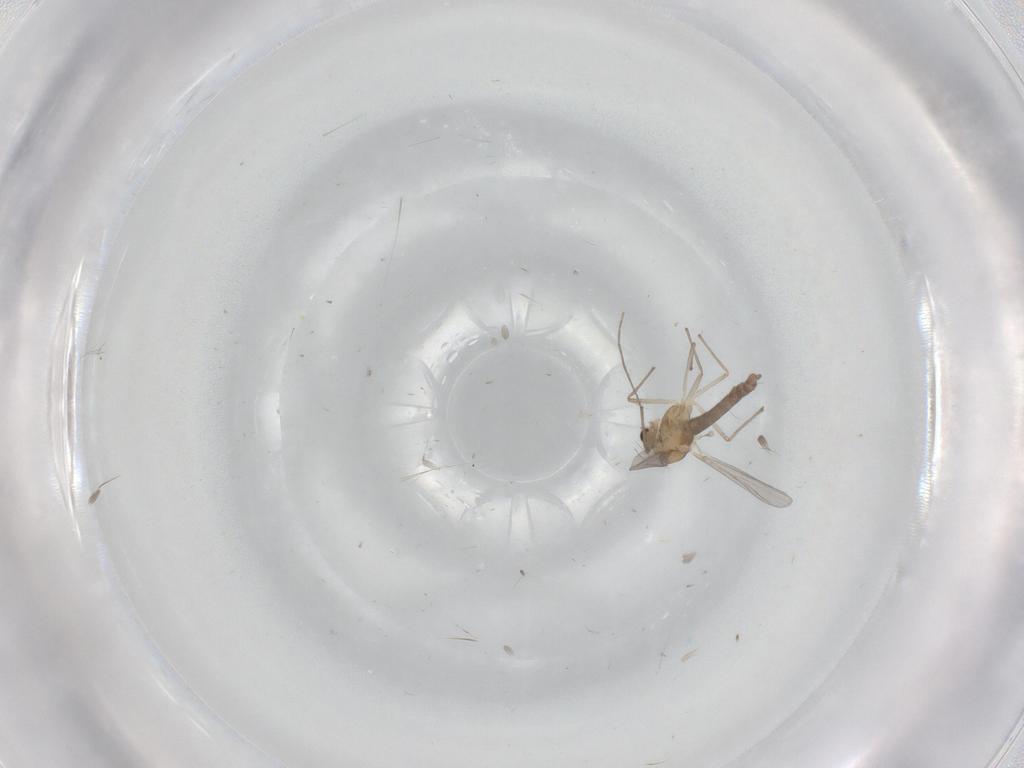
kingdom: Animalia
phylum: Arthropoda
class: Insecta
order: Diptera
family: Chironomidae
